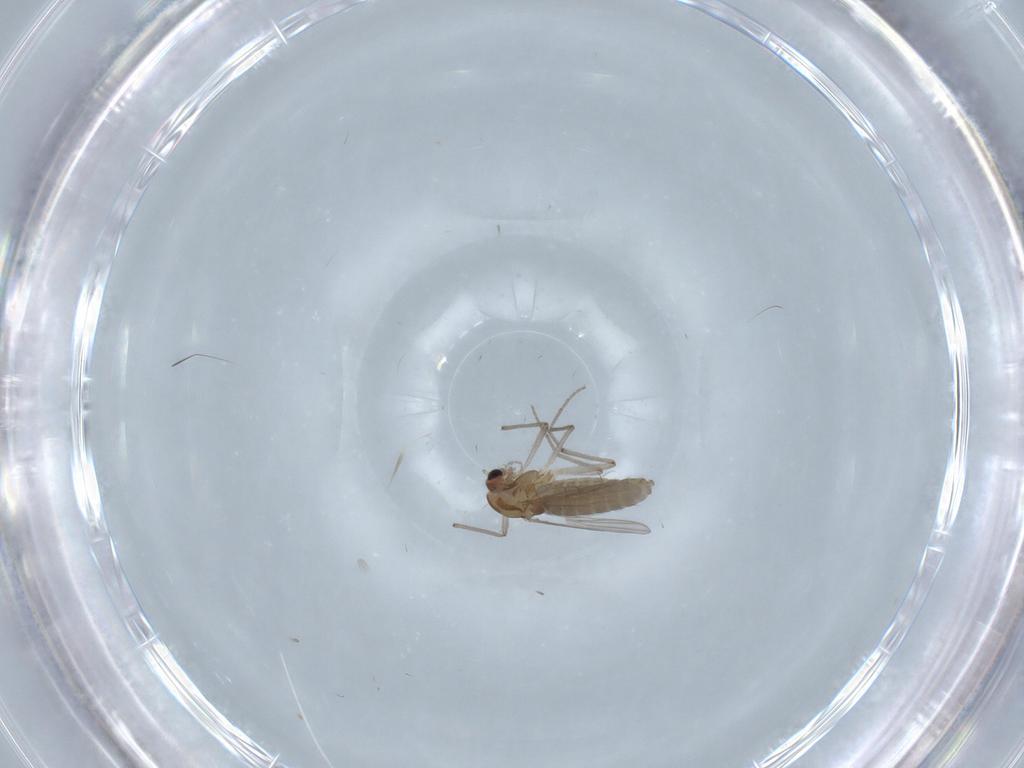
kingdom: Animalia
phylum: Arthropoda
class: Insecta
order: Diptera
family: Chironomidae
